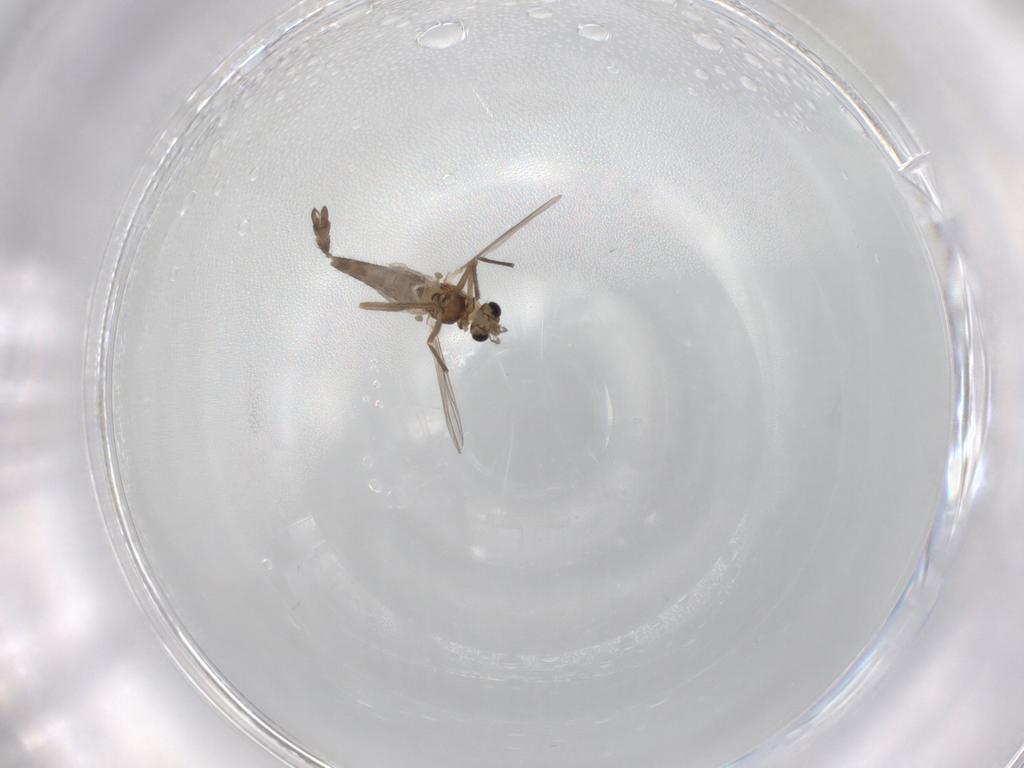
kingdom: Animalia
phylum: Arthropoda
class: Insecta
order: Diptera
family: Chironomidae
